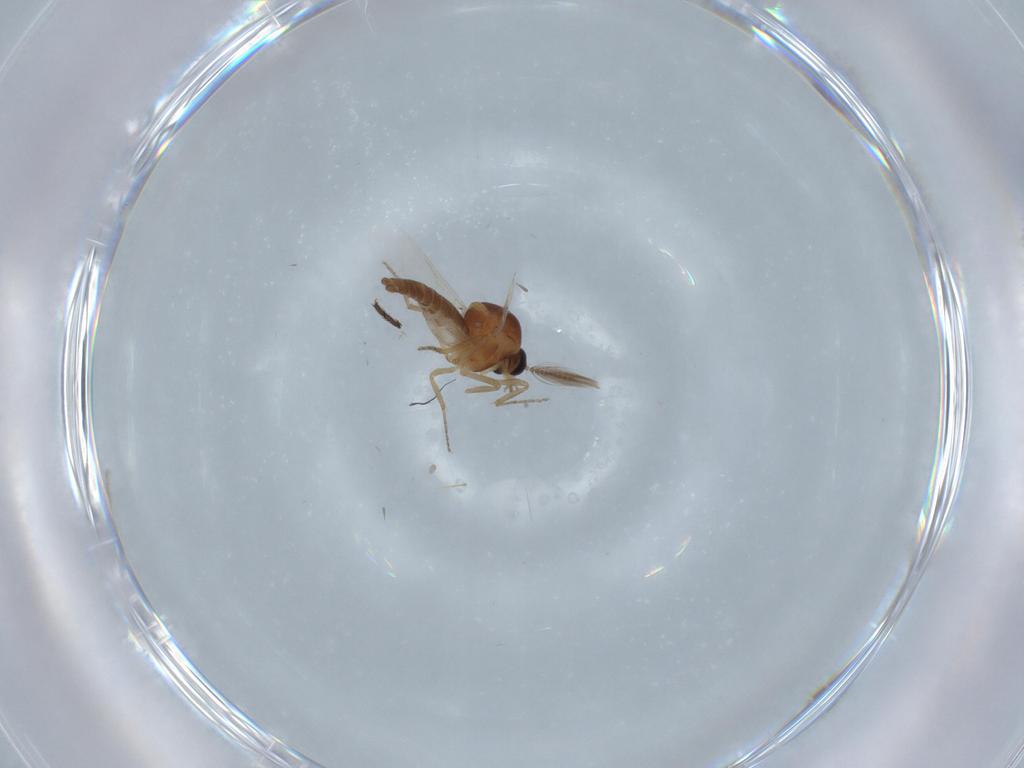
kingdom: Animalia
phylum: Arthropoda
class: Insecta
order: Diptera
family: Ceratopogonidae
